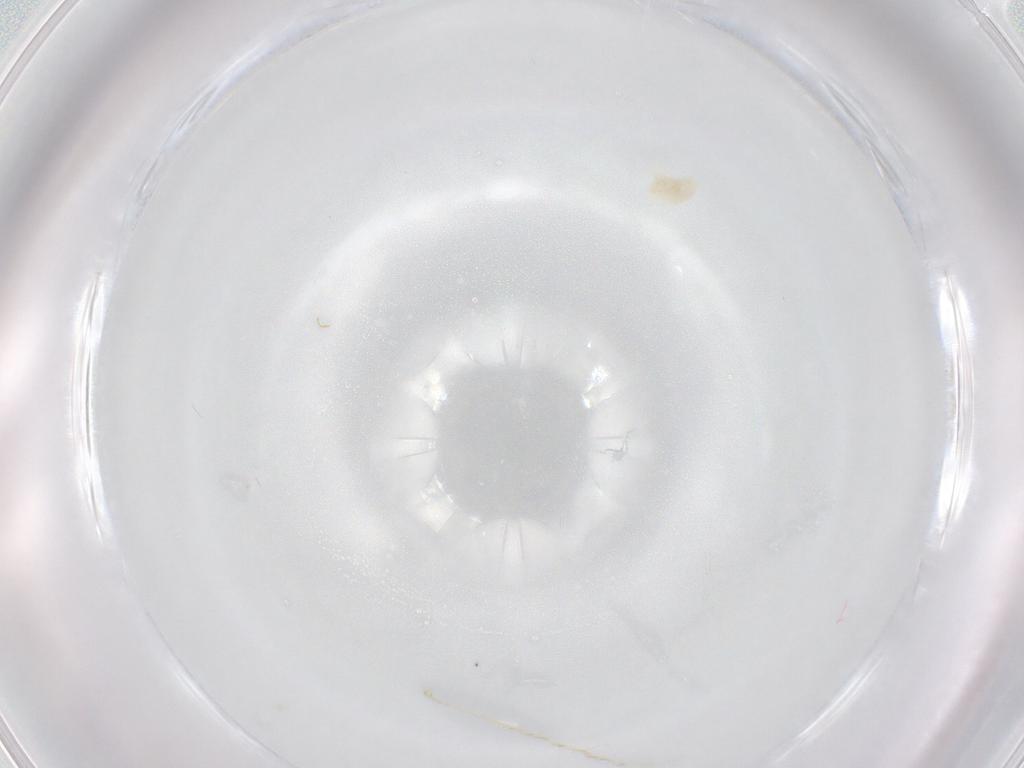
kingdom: Animalia
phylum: Arthropoda
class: Arachnida
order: Trombidiformes
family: Eupodidae
